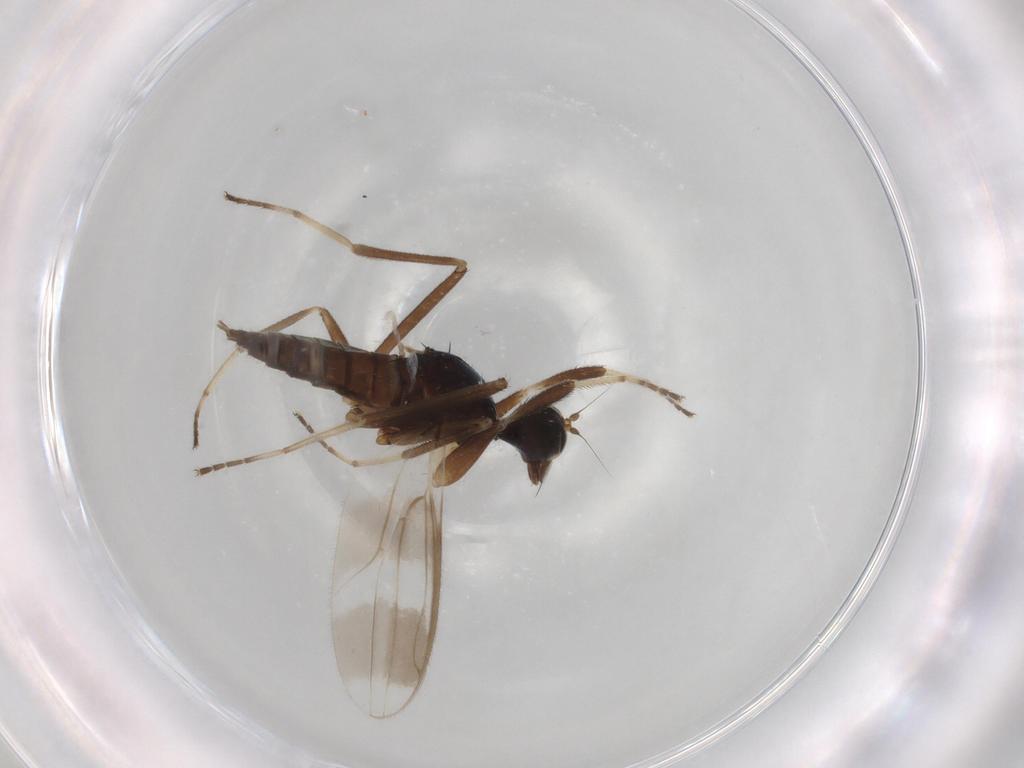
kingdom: Animalia
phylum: Arthropoda
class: Insecta
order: Diptera
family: Hybotidae
